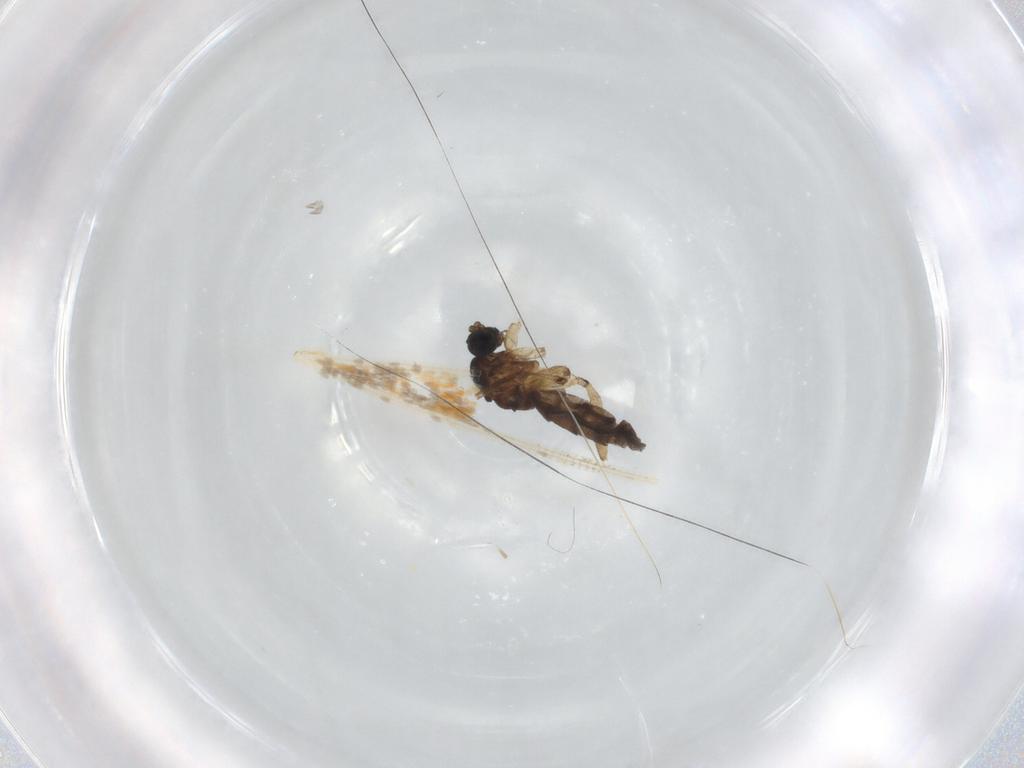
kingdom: Animalia
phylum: Arthropoda
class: Insecta
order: Diptera
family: Sciaridae
